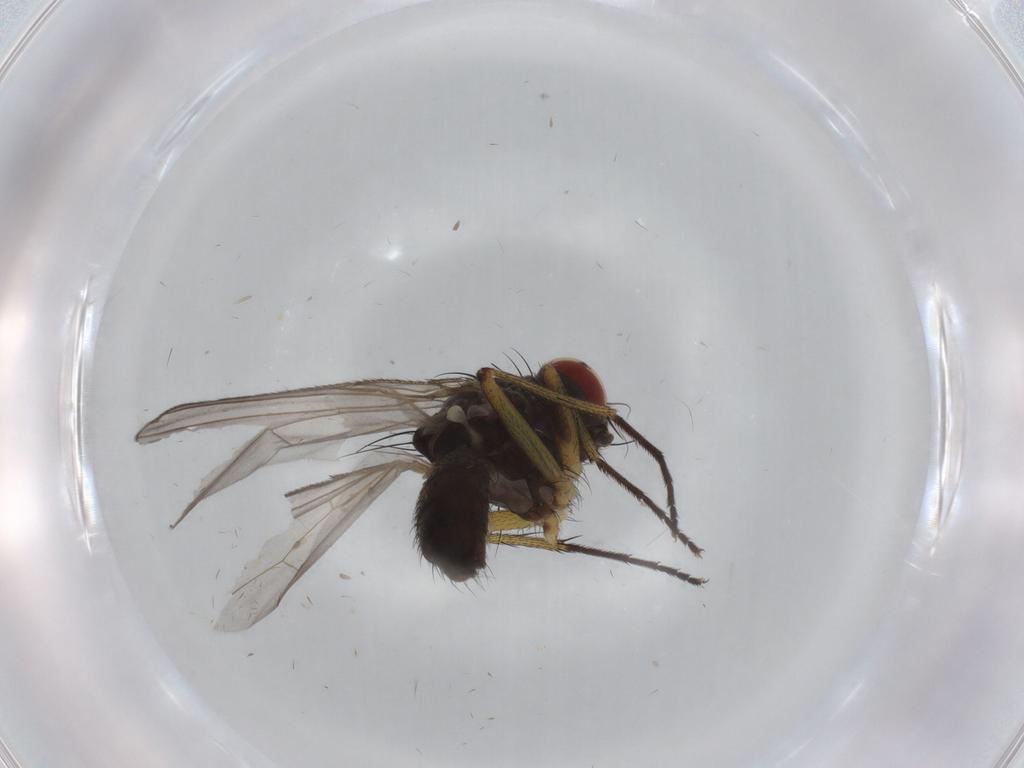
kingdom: Animalia
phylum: Arthropoda
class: Insecta
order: Diptera
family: Muscidae
